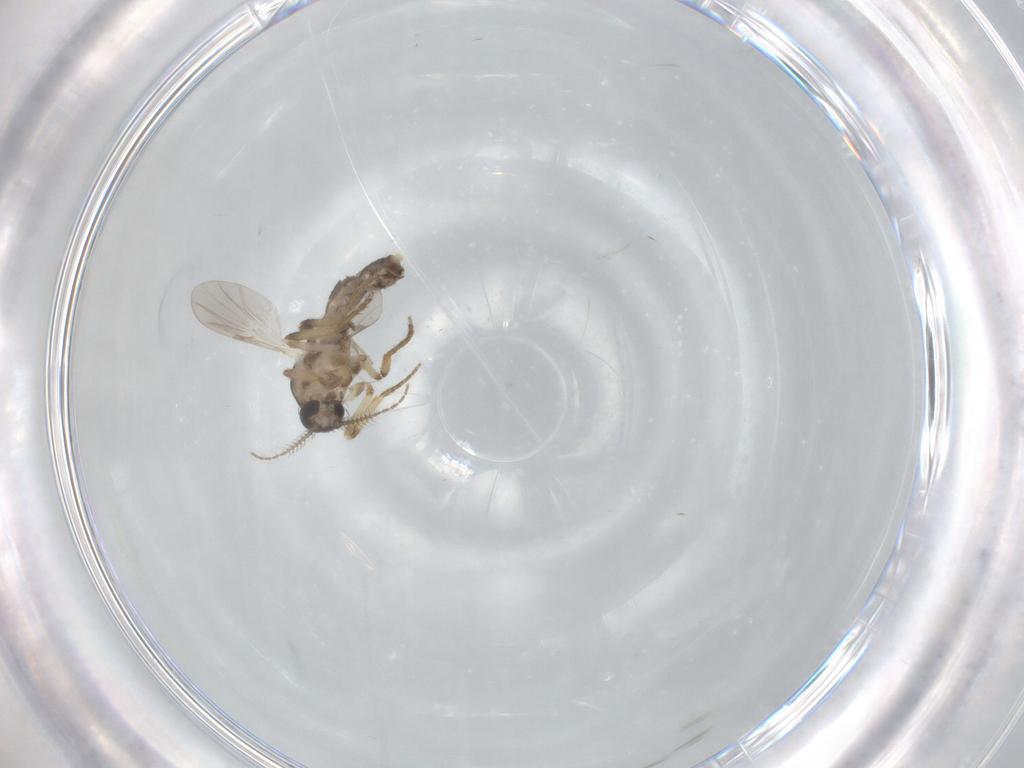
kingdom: Animalia
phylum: Arthropoda
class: Insecta
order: Diptera
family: Ceratopogonidae
